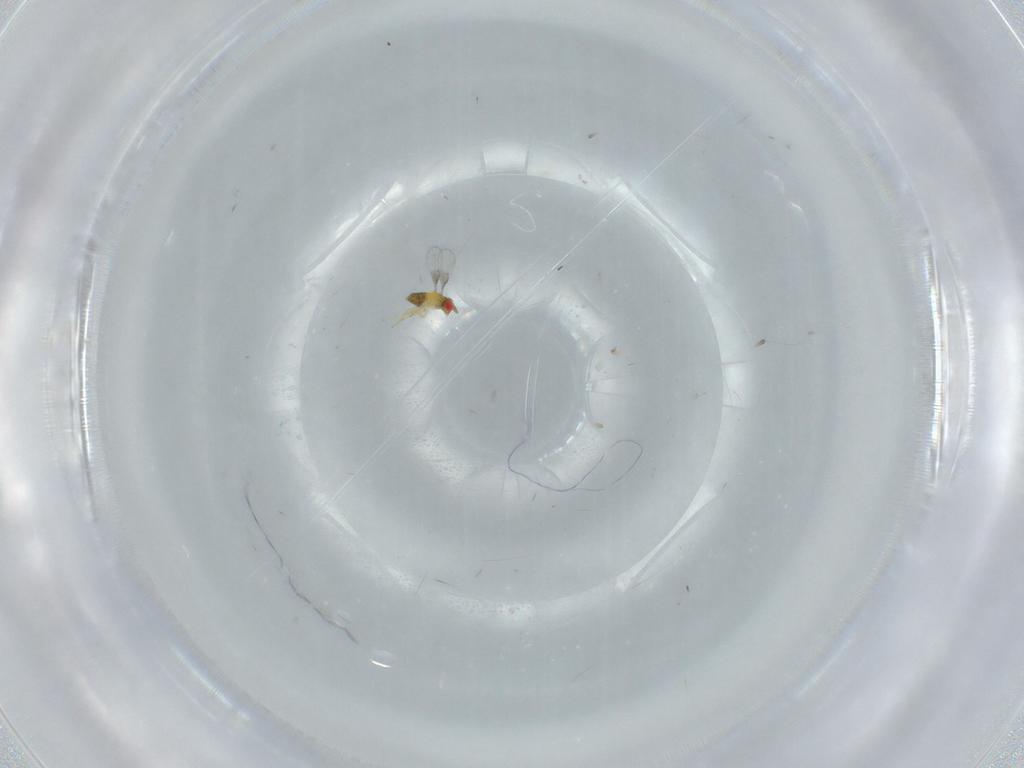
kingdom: Animalia
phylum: Arthropoda
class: Insecta
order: Hymenoptera
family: Trichogrammatidae
